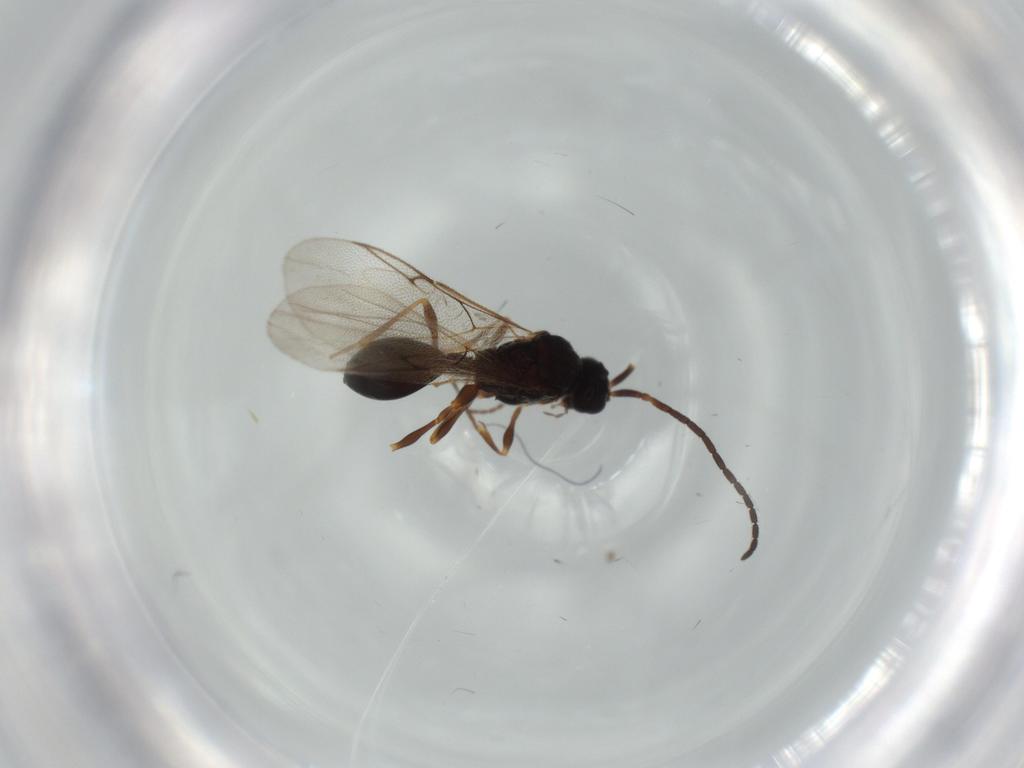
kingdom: Animalia
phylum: Arthropoda
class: Insecta
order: Hymenoptera
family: Diapriidae
